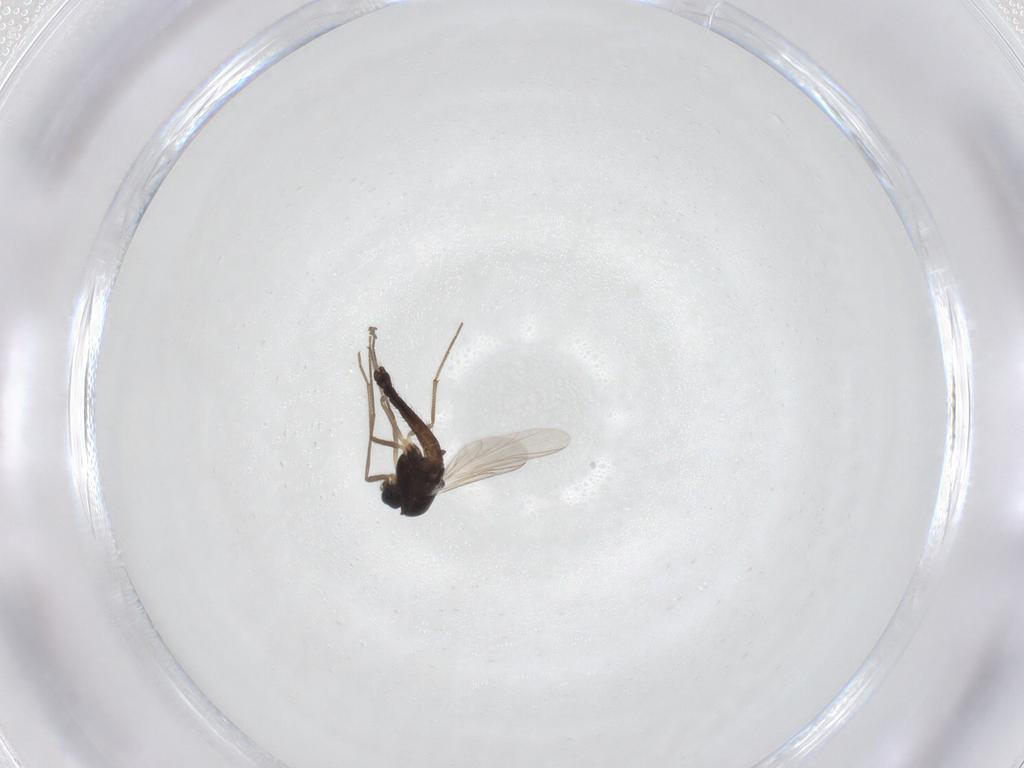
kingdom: Animalia
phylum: Arthropoda
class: Insecta
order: Diptera
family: Chironomidae
